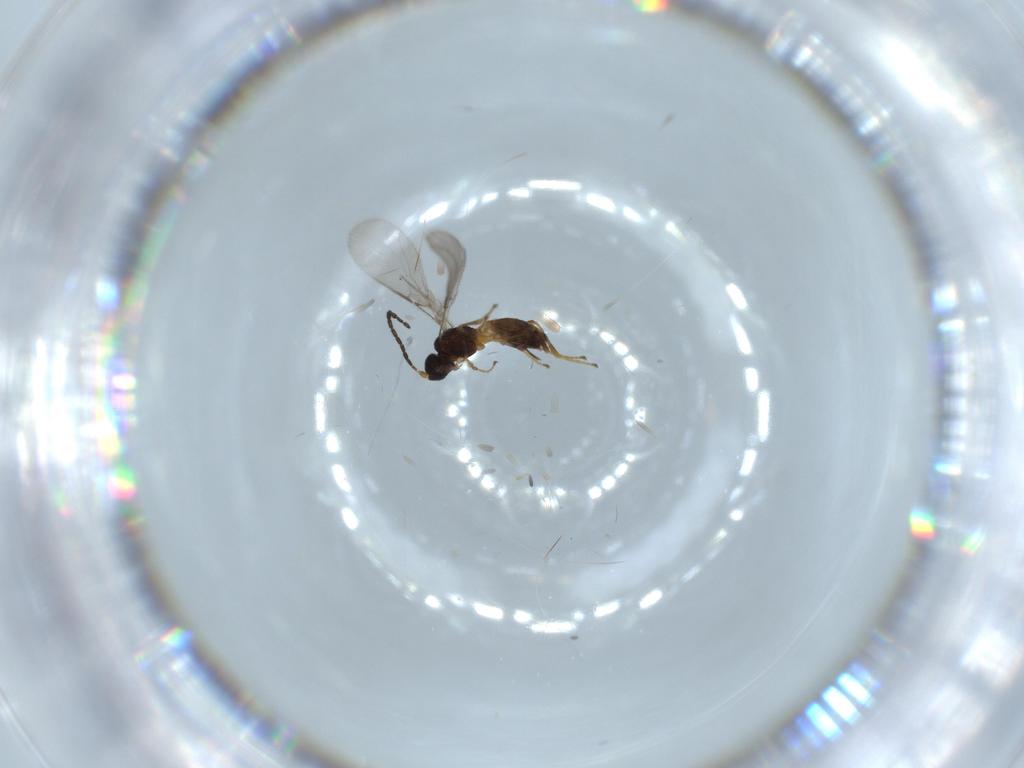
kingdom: Animalia
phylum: Arthropoda
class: Insecta
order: Hymenoptera
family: Braconidae
